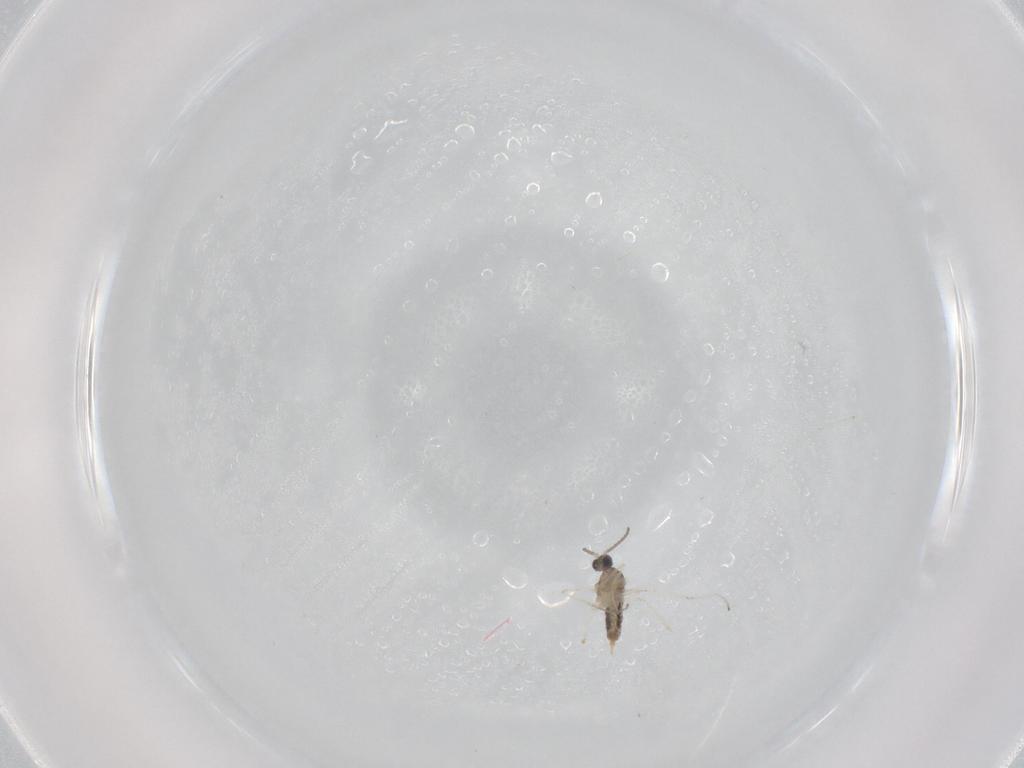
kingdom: Animalia
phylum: Arthropoda
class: Insecta
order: Diptera
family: Cecidomyiidae
